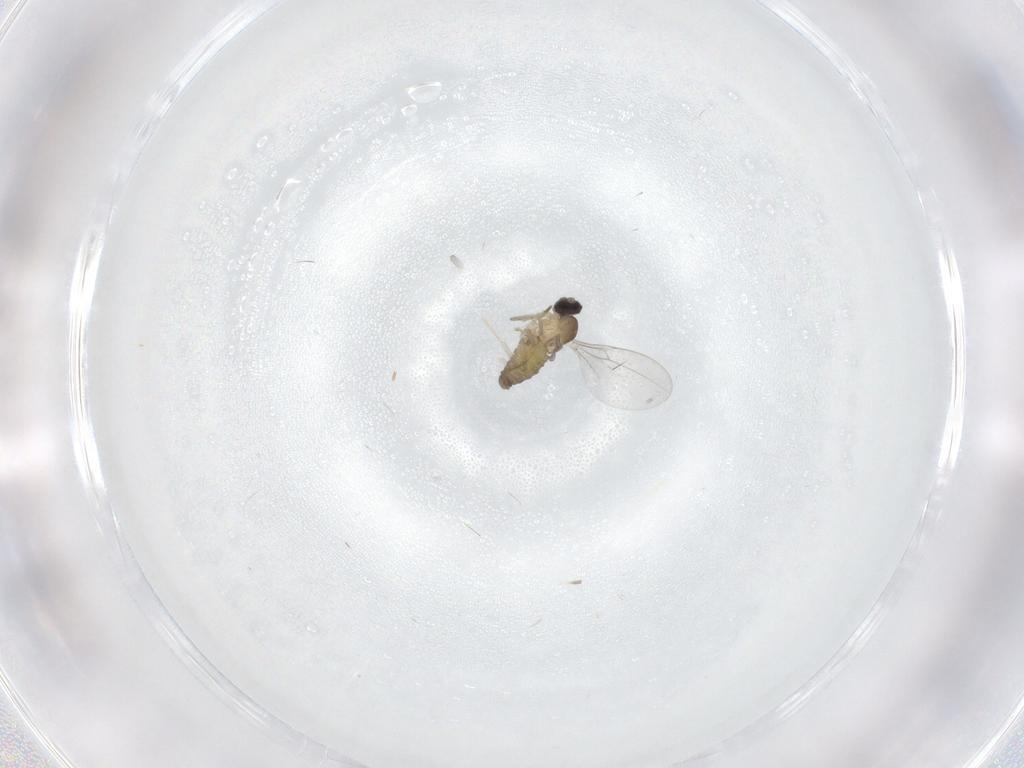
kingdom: Animalia
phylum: Arthropoda
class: Insecta
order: Diptera
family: Cecidomyiidae
